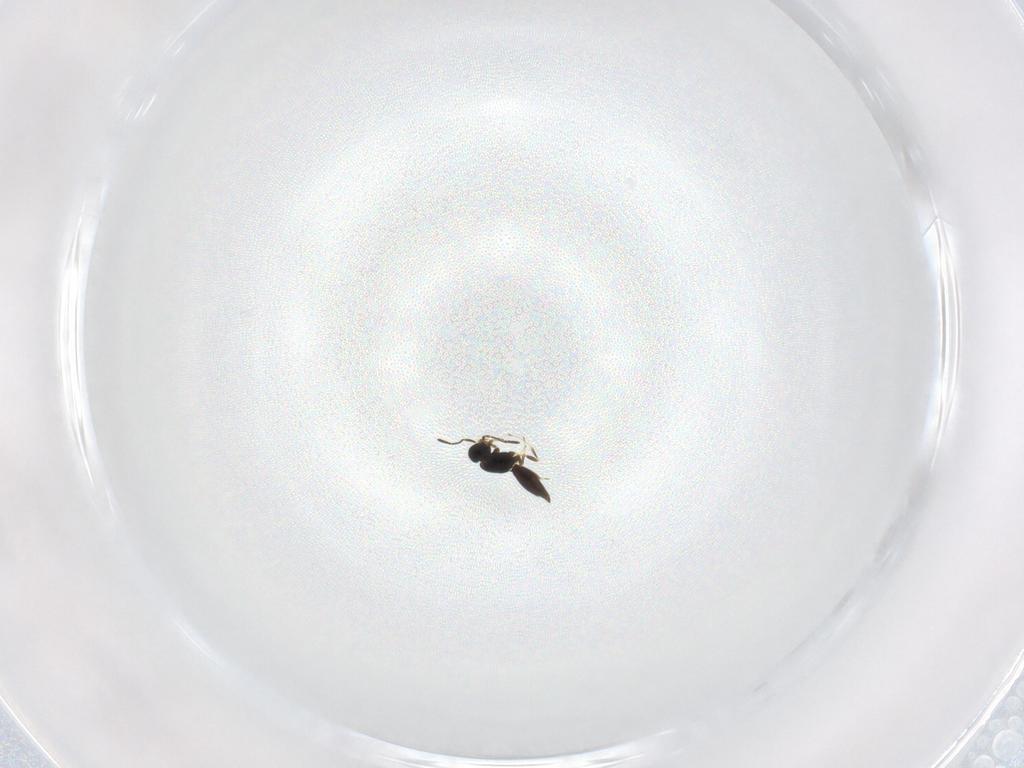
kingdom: Animalia
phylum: Arthropoda
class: Insecta
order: Hymenoptera
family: Scelionidae
